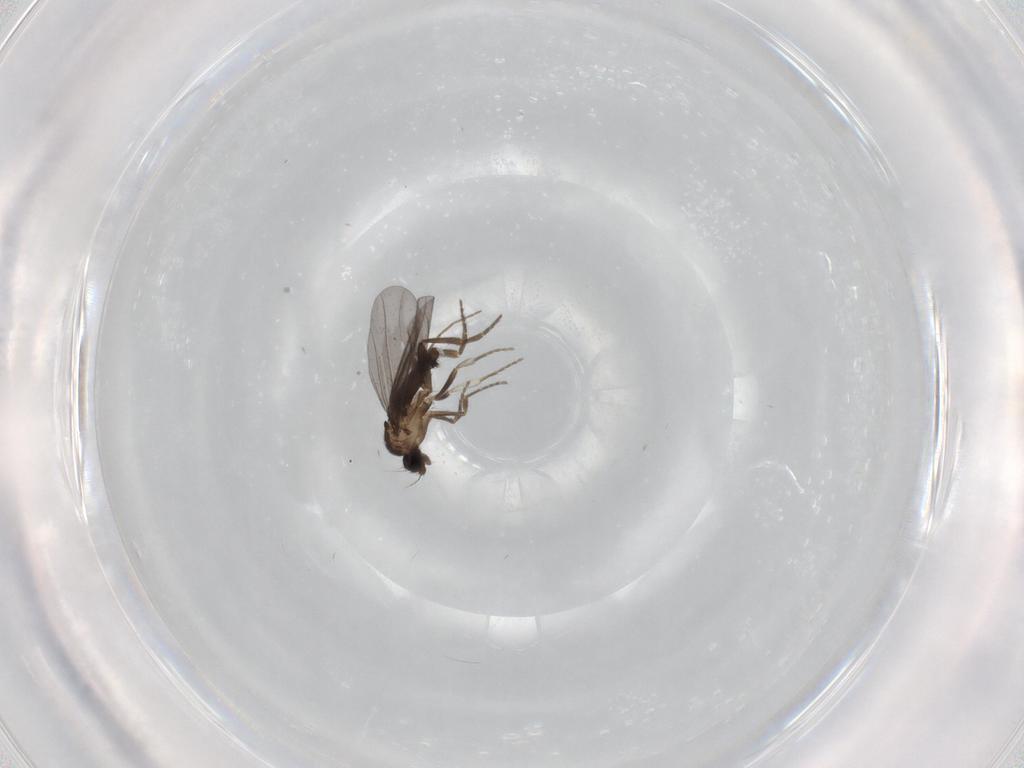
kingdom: Animalia
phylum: Arthropoda
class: Insecta
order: Diptera
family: Phoridae
